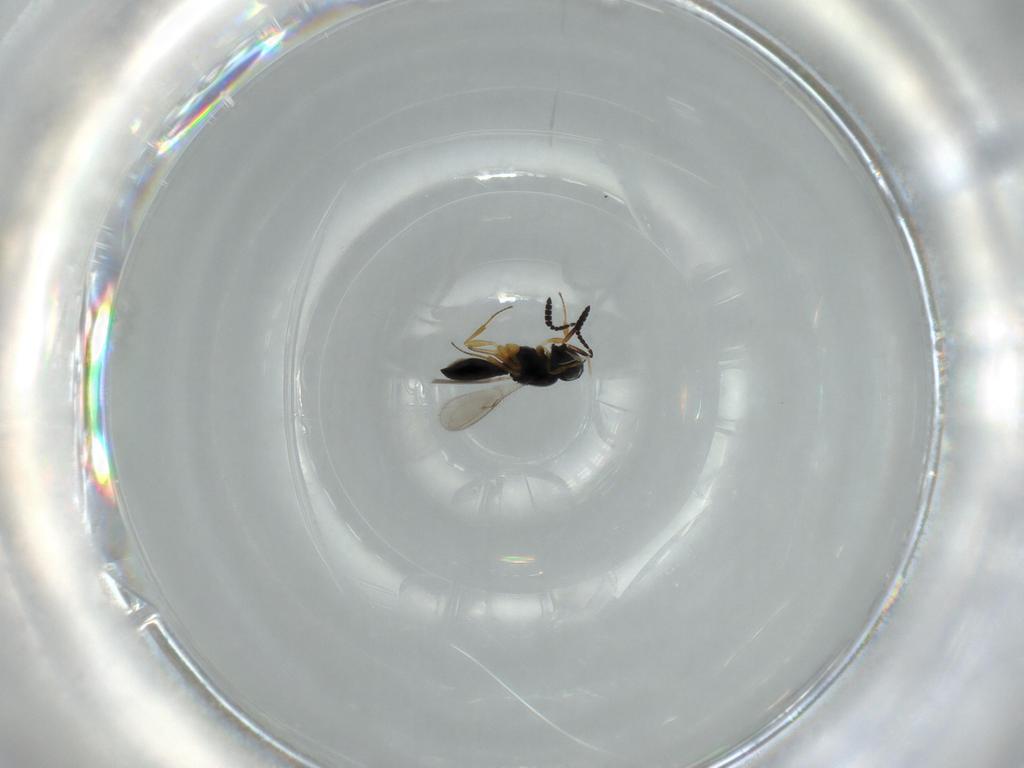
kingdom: Animalia
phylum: Arthropoda
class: Insecta
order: Hymenoptera
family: Scelionidae
